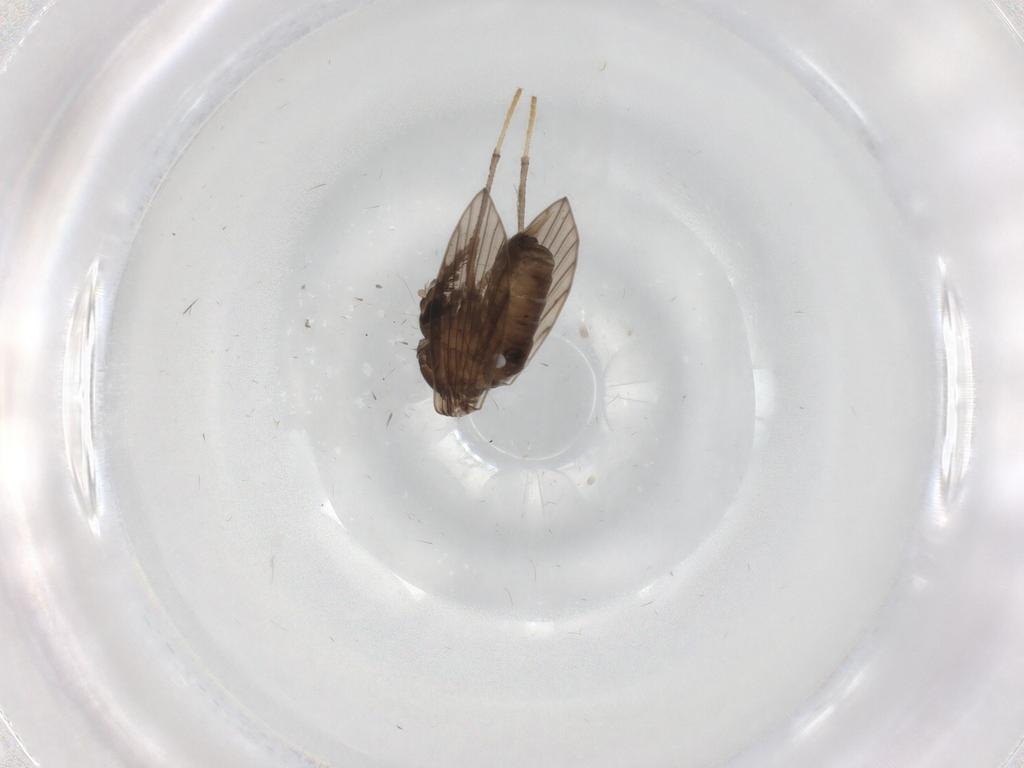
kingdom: Animalia
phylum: Arthropoda
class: Insecta
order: Diptera
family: Psychodidae
